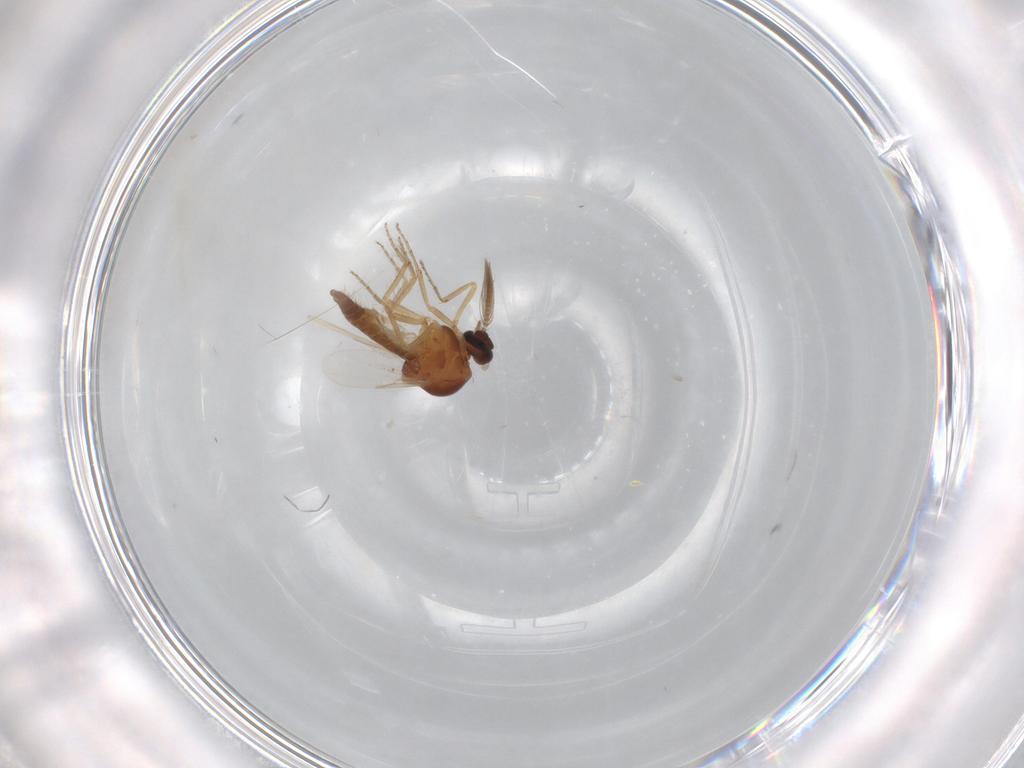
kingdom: Animalia
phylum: Arthropoda
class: Insecta
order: Diptera
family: Ceratopogonidae
